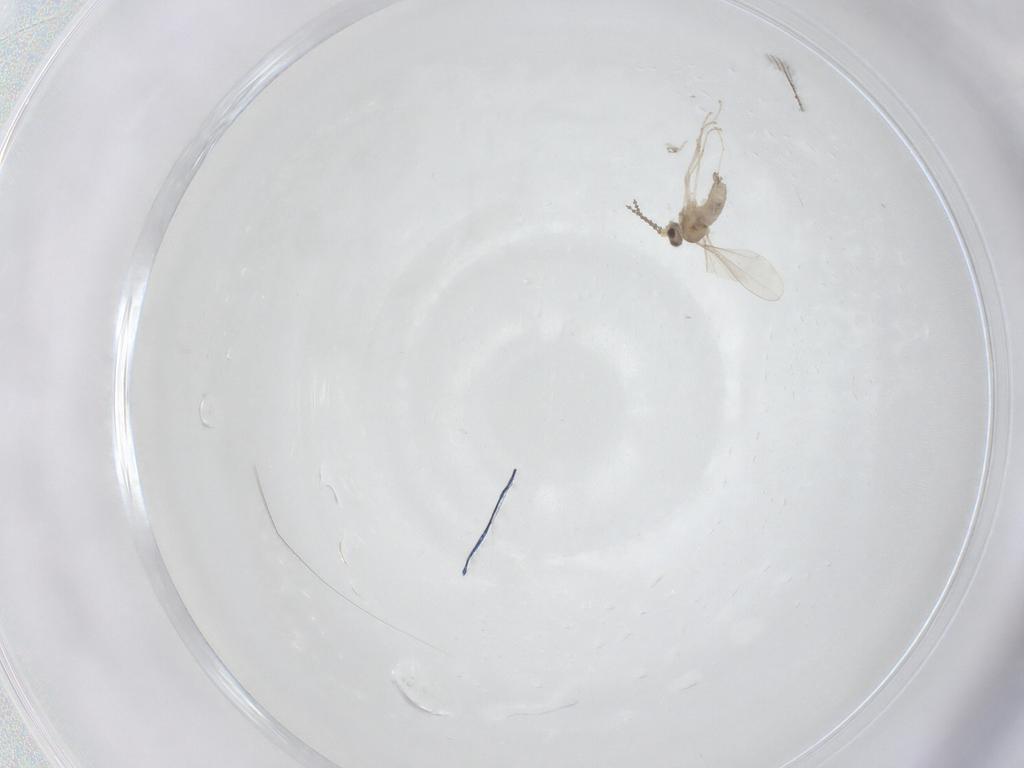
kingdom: Animalia
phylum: Arthropoda
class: Insecta
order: Diptera
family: Cecidomyiidae
